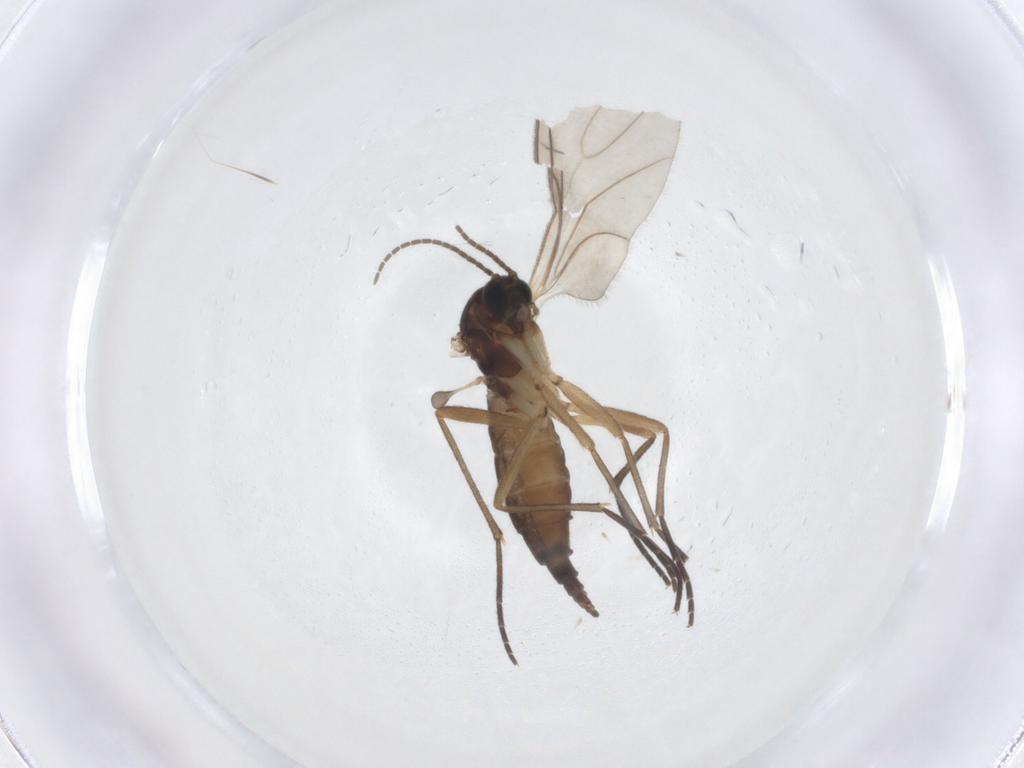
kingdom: Animalia
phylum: Arthropoda
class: Insecta
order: Diptera
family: Sciaridae
